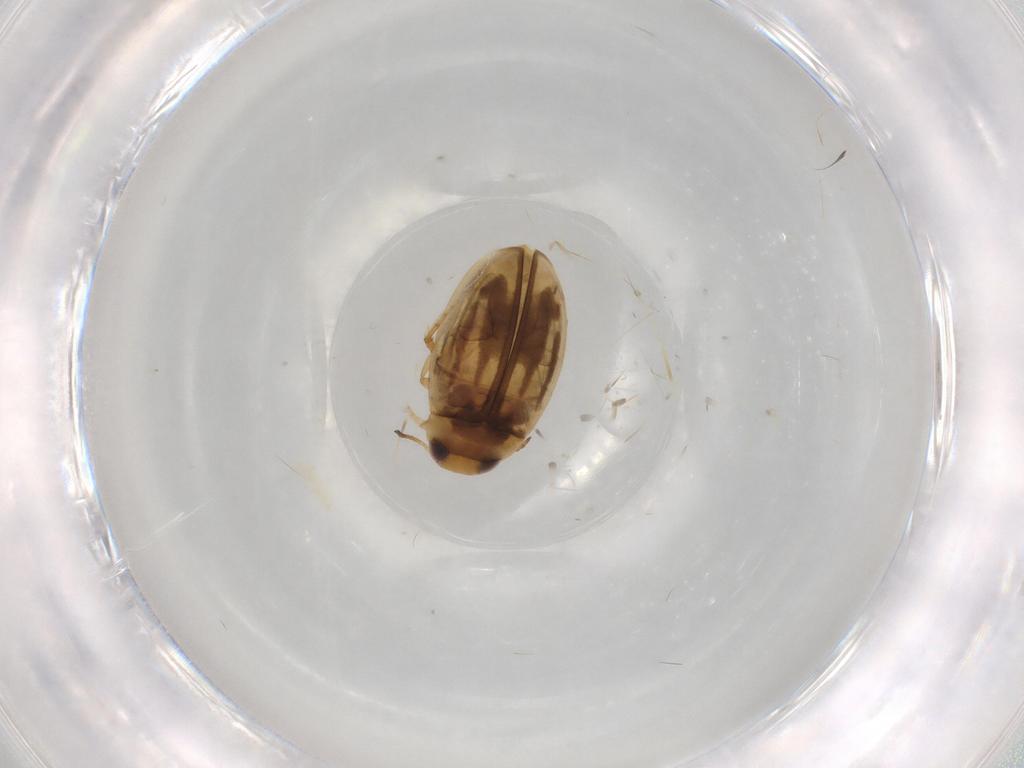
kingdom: Animalia
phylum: Arthropoda
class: Insecta
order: Coleoptera
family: Dytiscidae
